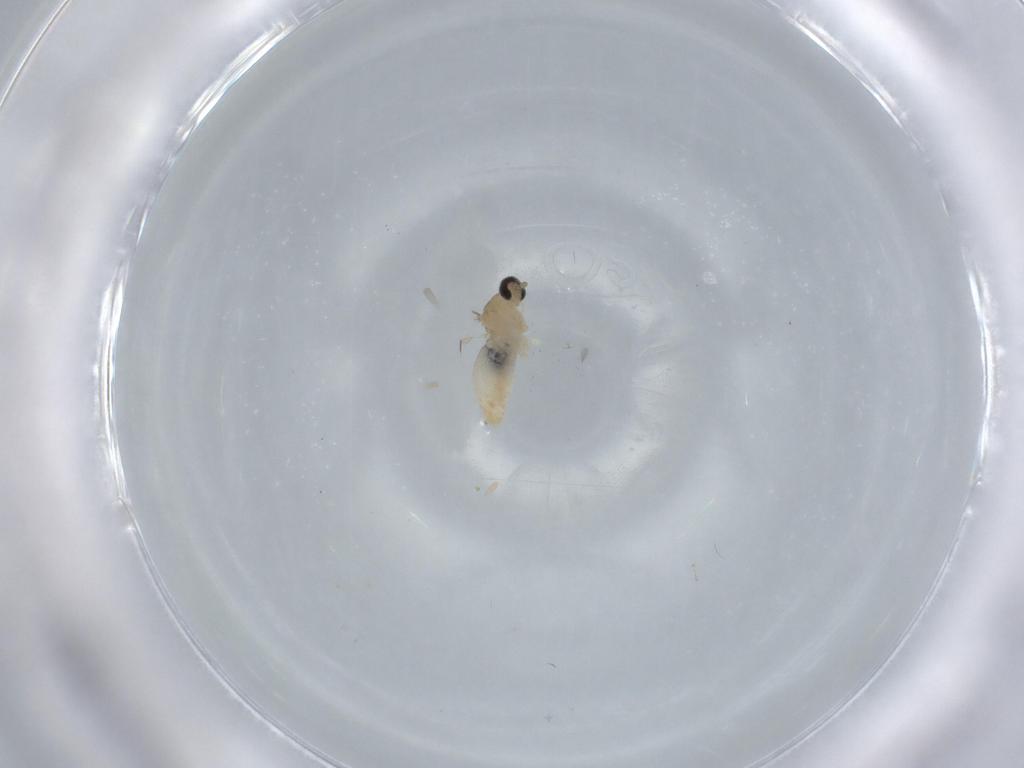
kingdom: Animalia
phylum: Arthropoda
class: Insecta
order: Diptera
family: Cecidomyiidae
